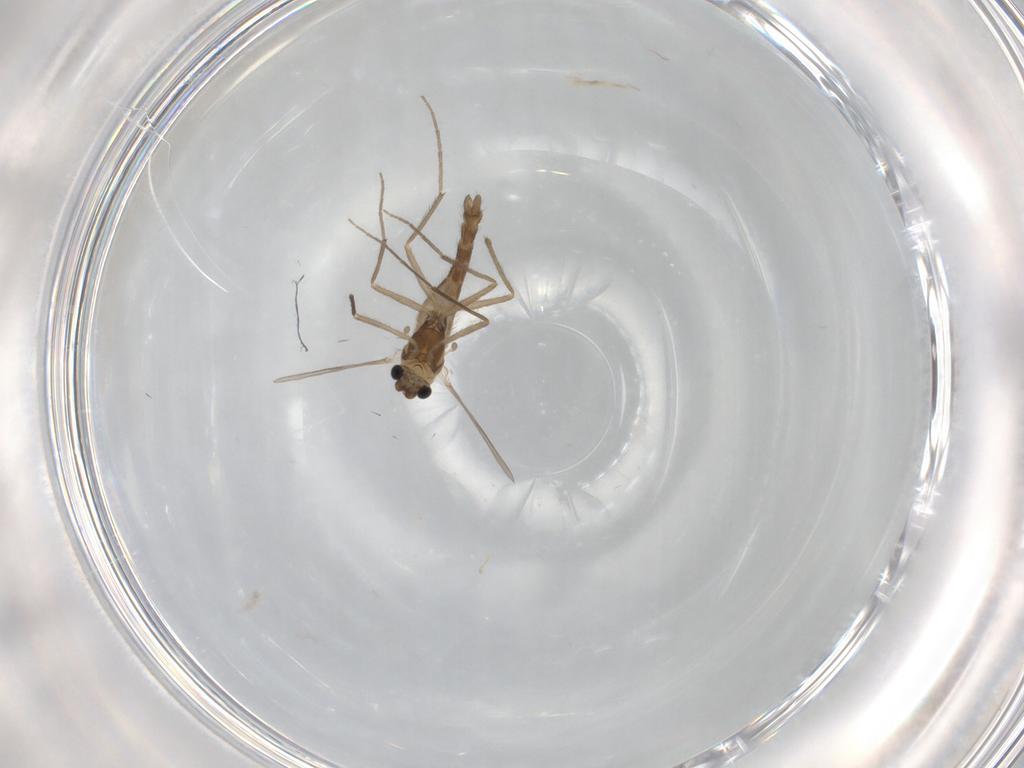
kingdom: Animalia
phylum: Arthropoda
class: Insecta
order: Diptera
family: Chironomidae
